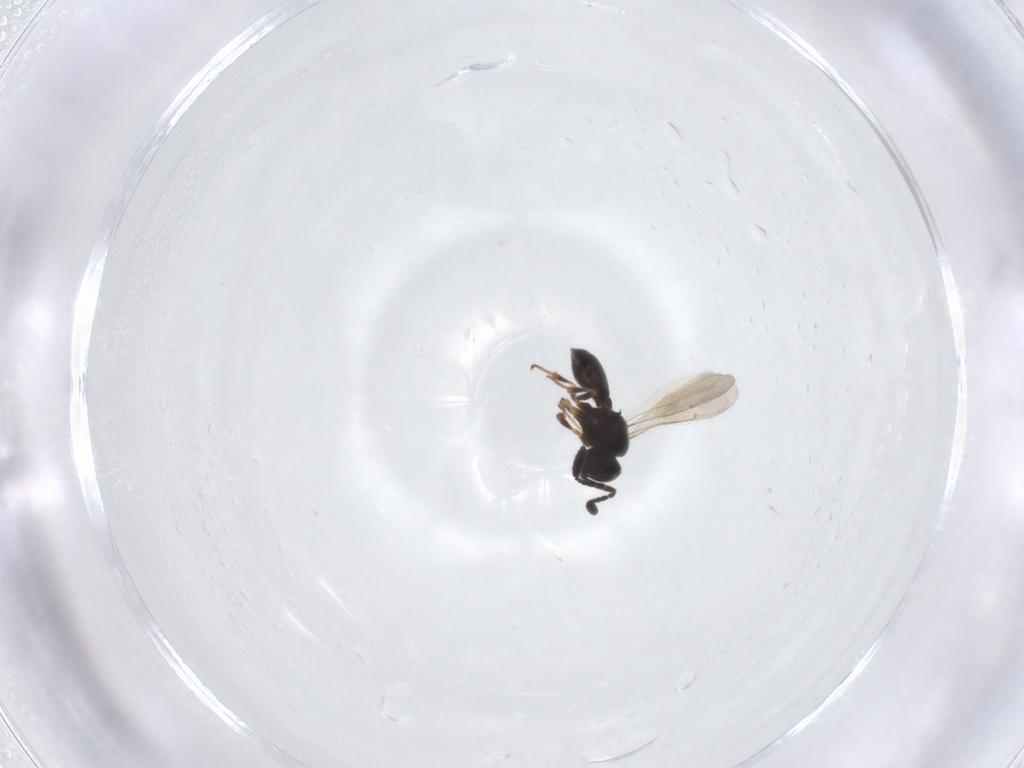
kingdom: Animalia
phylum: Arthropoda
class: Insecta
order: Hymenoptera
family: Scelionidae
